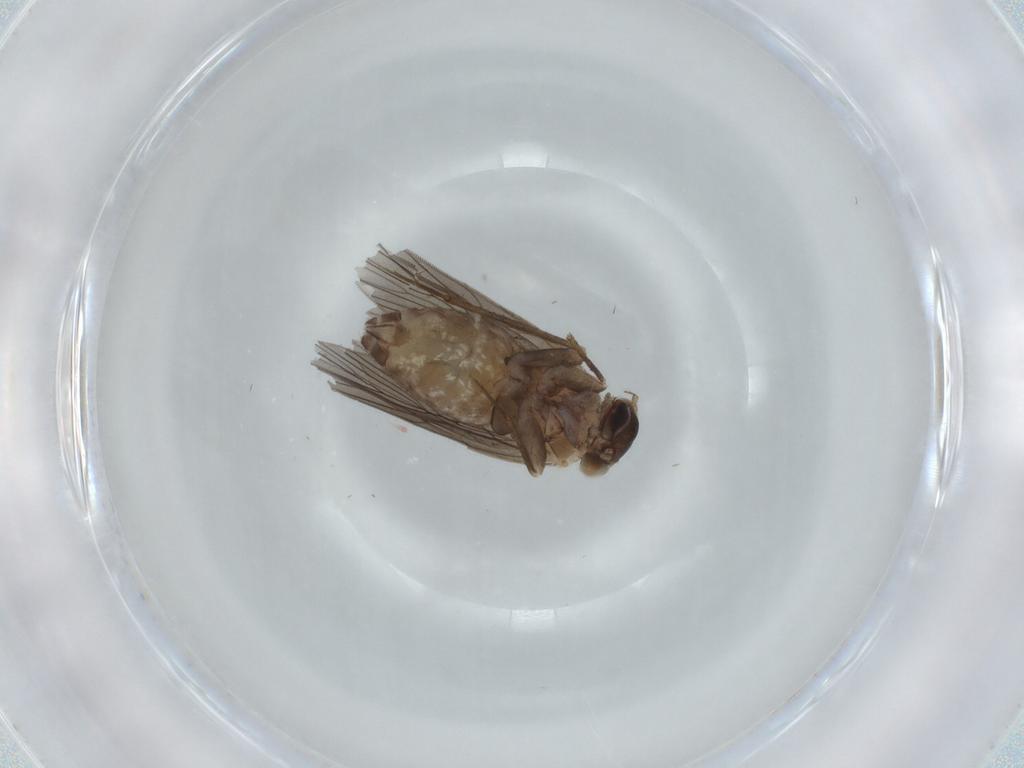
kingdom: Animalia
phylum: Arthropoda
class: Insecta
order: Psocodea
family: Lepidopsocidae
